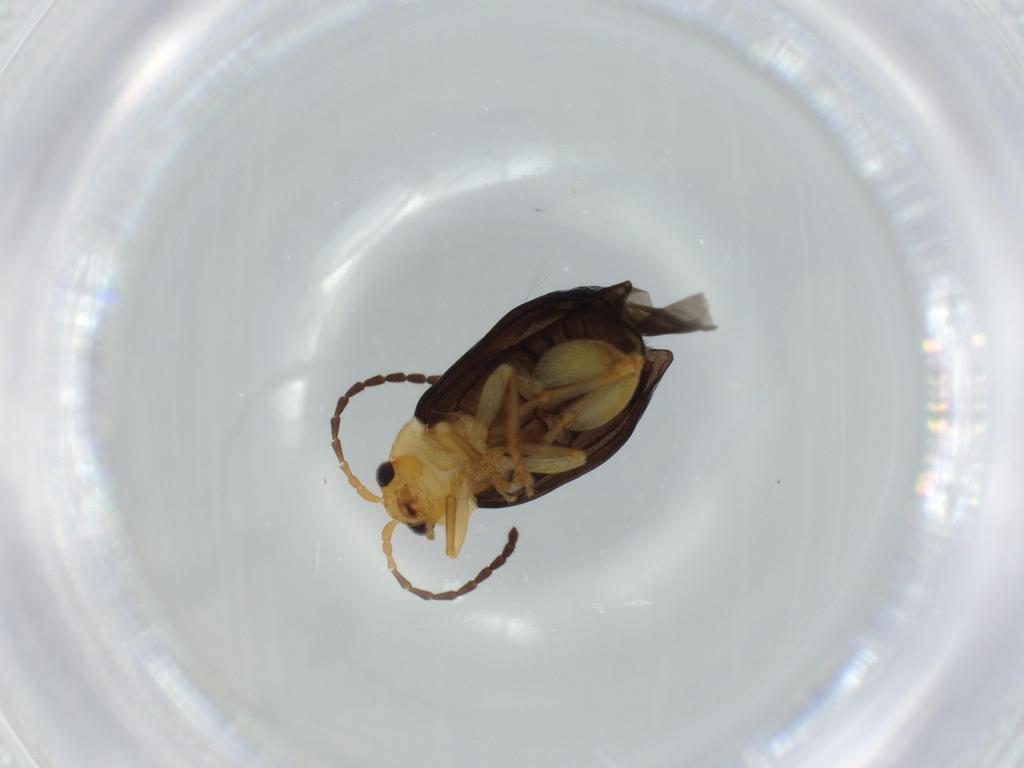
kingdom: Animalia
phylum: Arthropoda
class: Insecta
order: Coleoptera
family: Chrysomelidae
